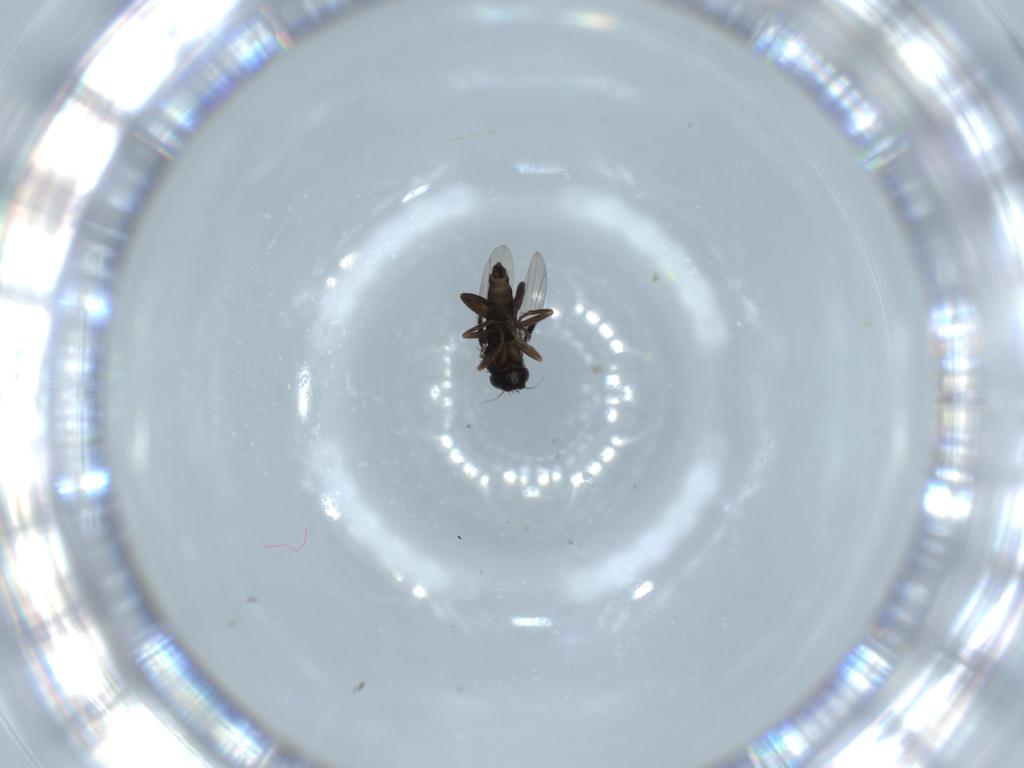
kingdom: Animalia
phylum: Arthropoda
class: Insecta
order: Diptera
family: Phoridae
